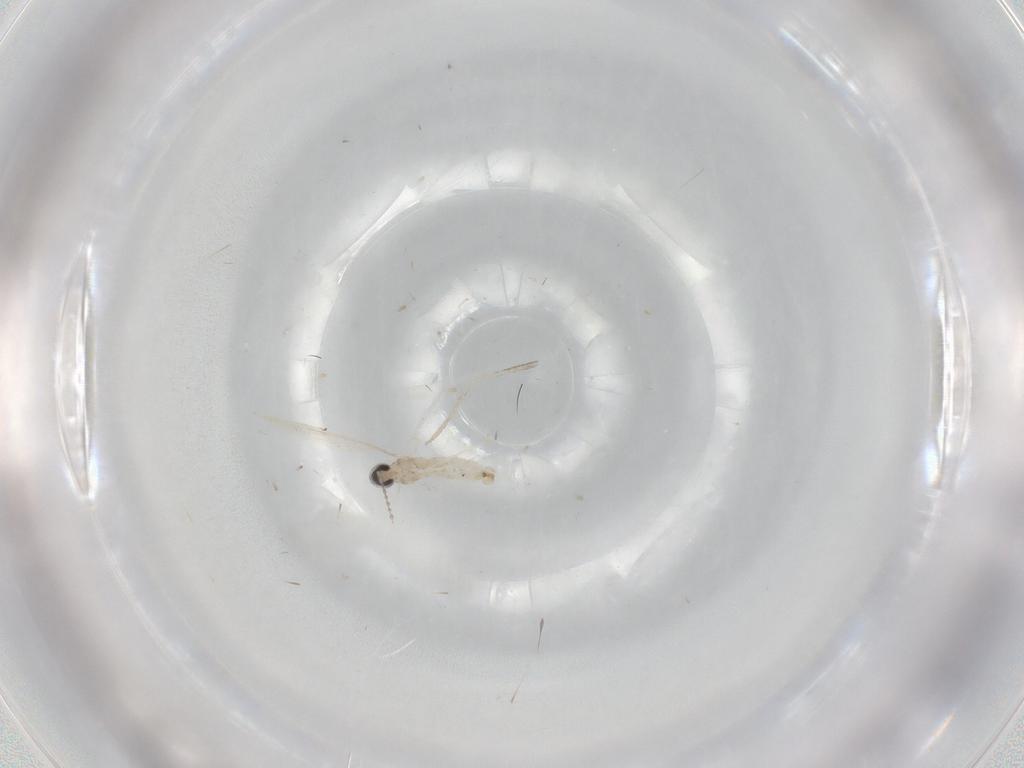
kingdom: Animalia
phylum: Arthropoda
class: Insecta
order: Diptera
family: Cecidomyiidae
